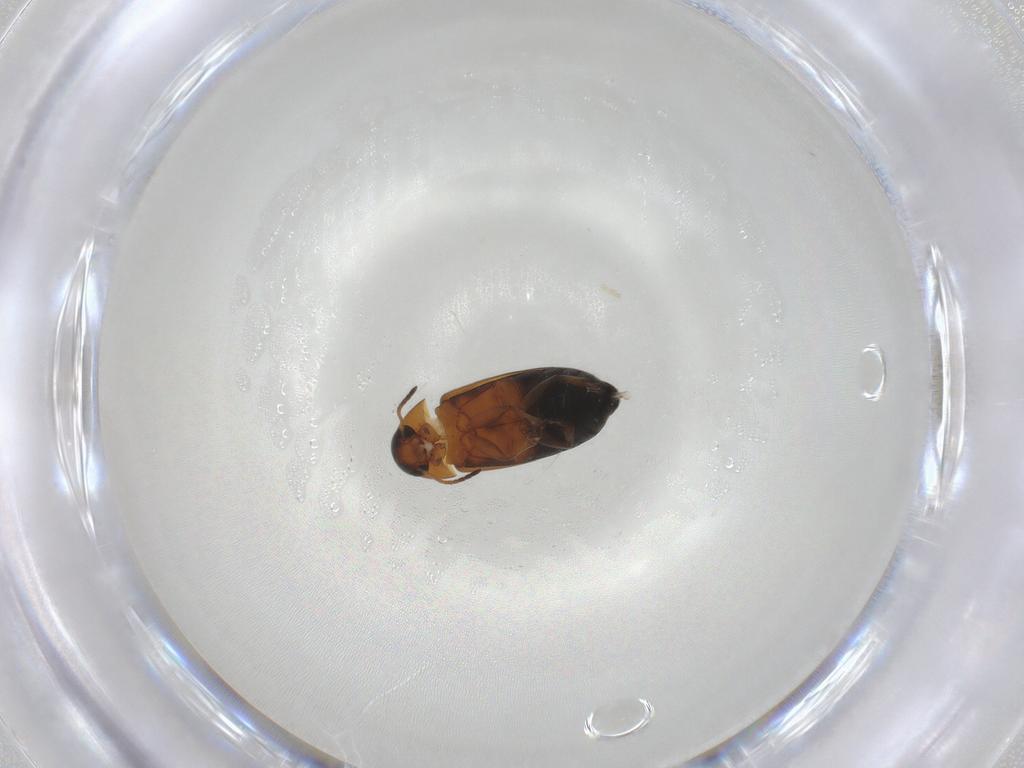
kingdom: Animalia
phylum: Arthropoda
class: Insecta
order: Coleoptera
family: Scraptiidae
